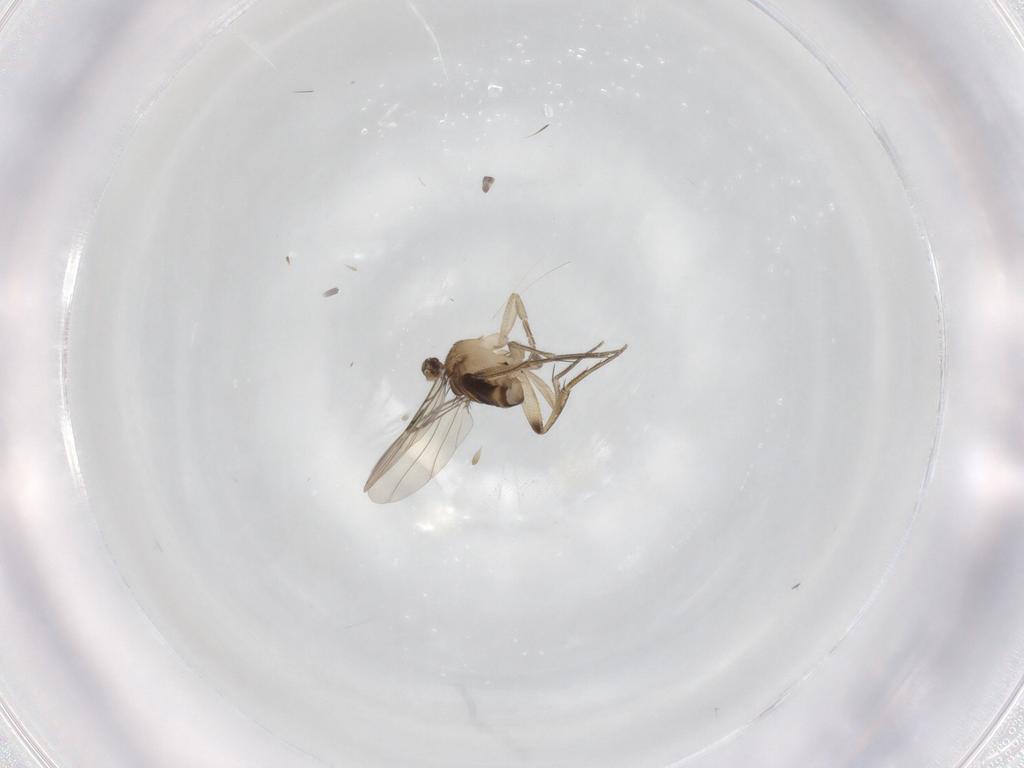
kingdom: Animalia
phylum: Arthropoda
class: Insecta
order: Diptera
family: Phoridae
